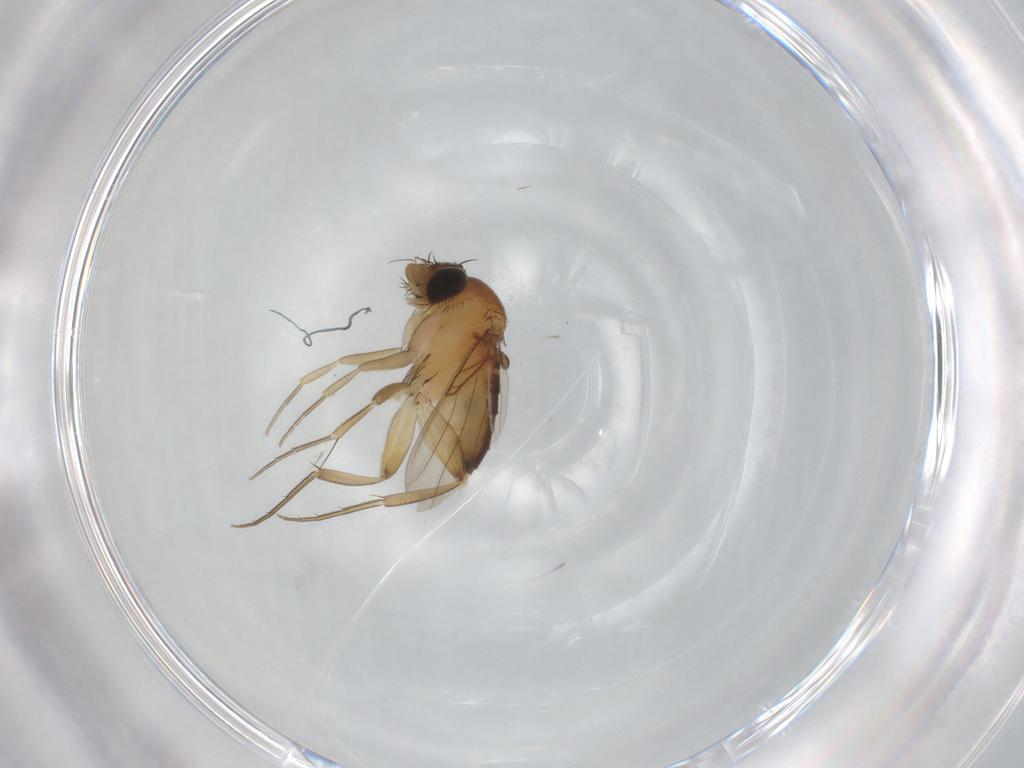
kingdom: Animalia
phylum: Arthropoda
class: Insecta
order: Diptera
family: Phoridae
